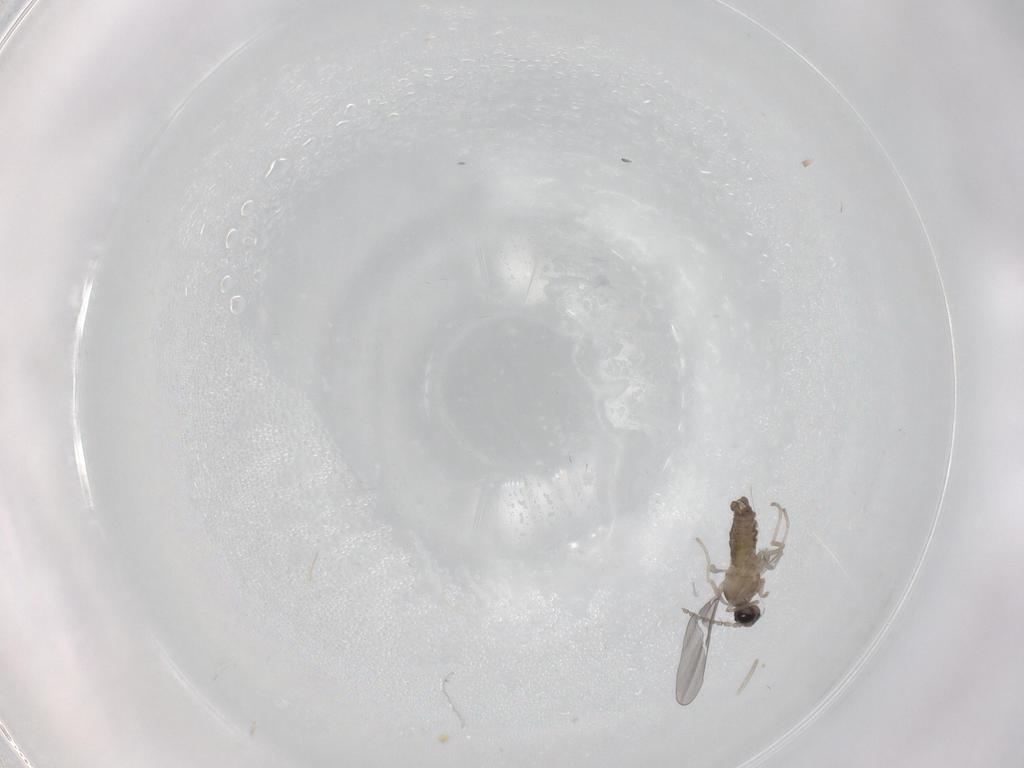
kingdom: Animalia
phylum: Arthropoda
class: Insecta
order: Diptera
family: Cecidomyiidae
